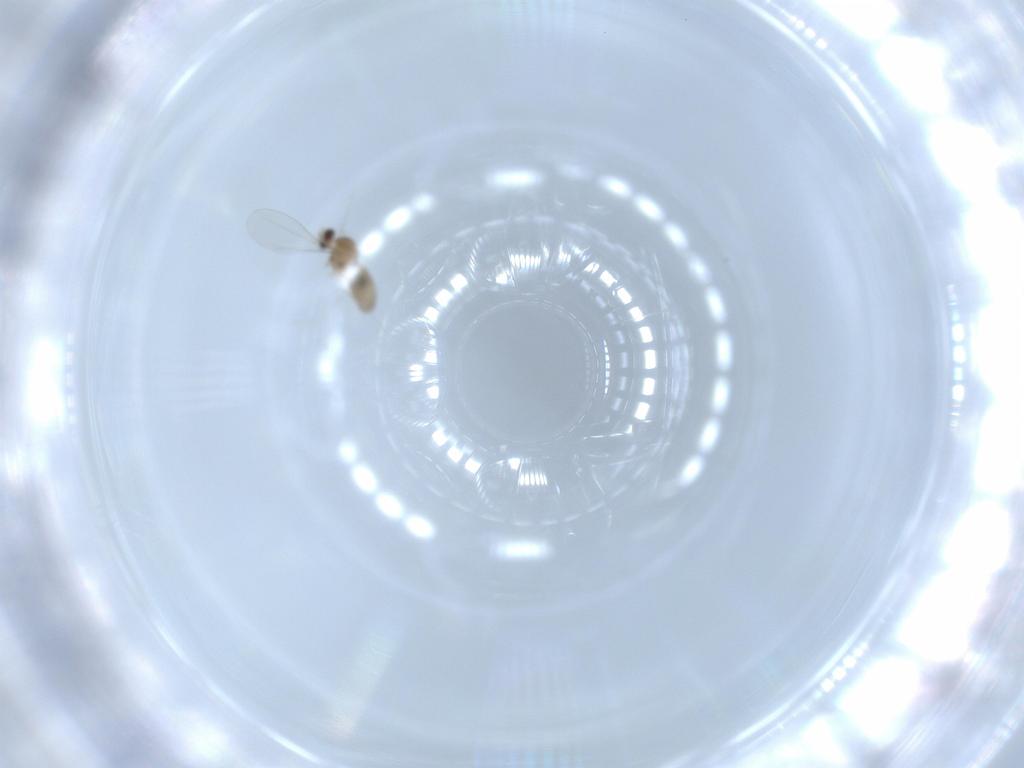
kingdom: Animalia
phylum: Arthropoda
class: Insecta
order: Diptera
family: Cecidomyiidae
